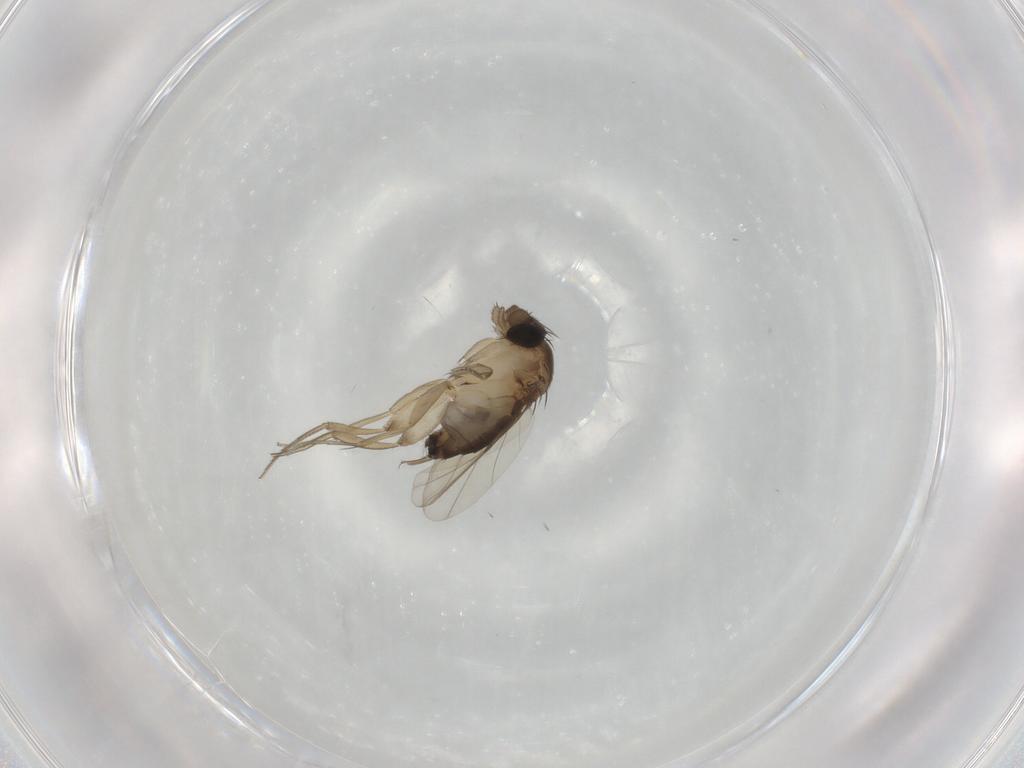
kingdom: Animalia
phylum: Arthropoda
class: Insecta
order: Diptera
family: Phoridae
